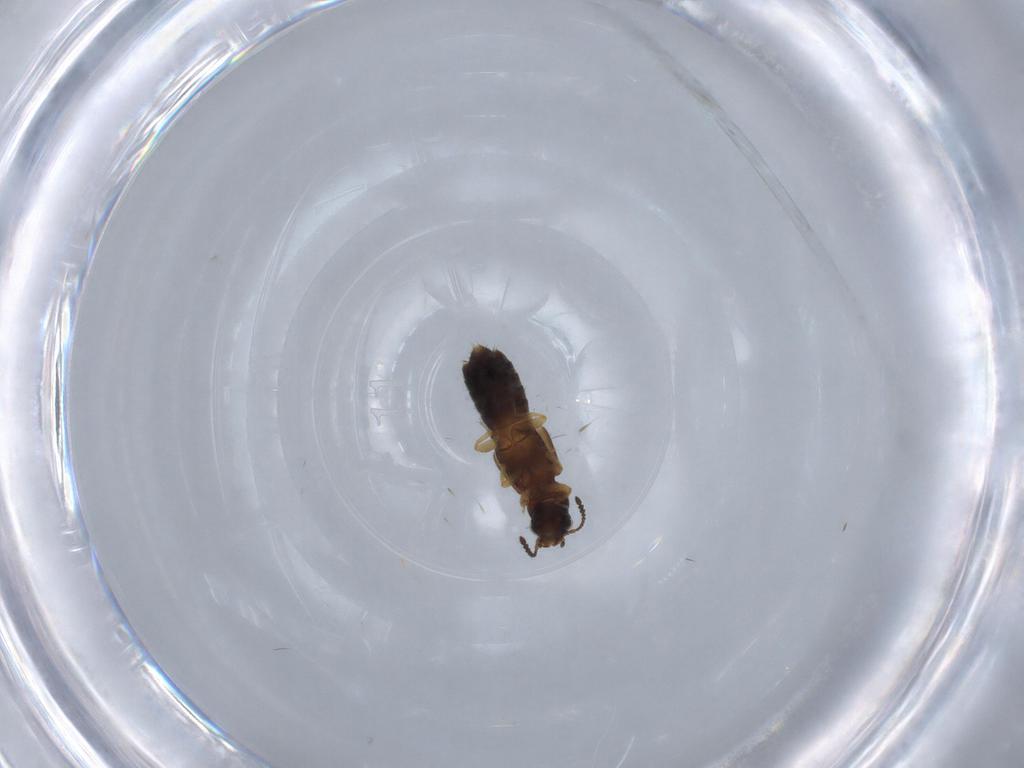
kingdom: Animalia
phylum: Arthropoda
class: Insecta
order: Coleoptera
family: Staphylinidae
